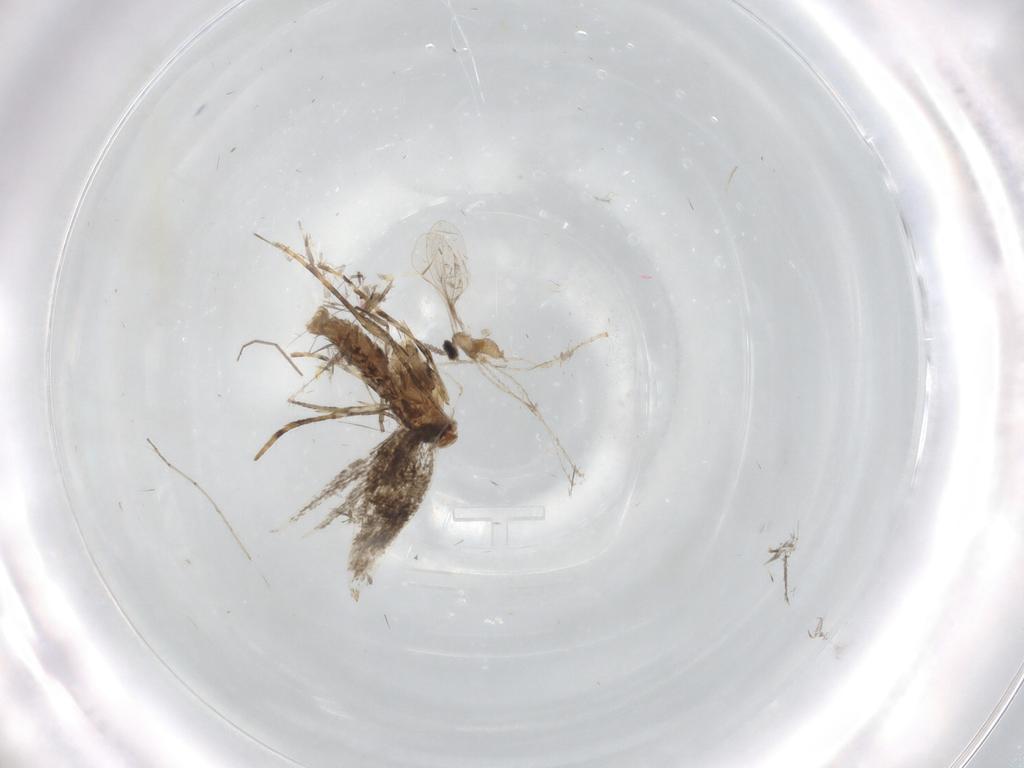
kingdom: Animalia
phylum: Arthropoda
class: Insecta
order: Lepidoptera
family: Gracillariidae
